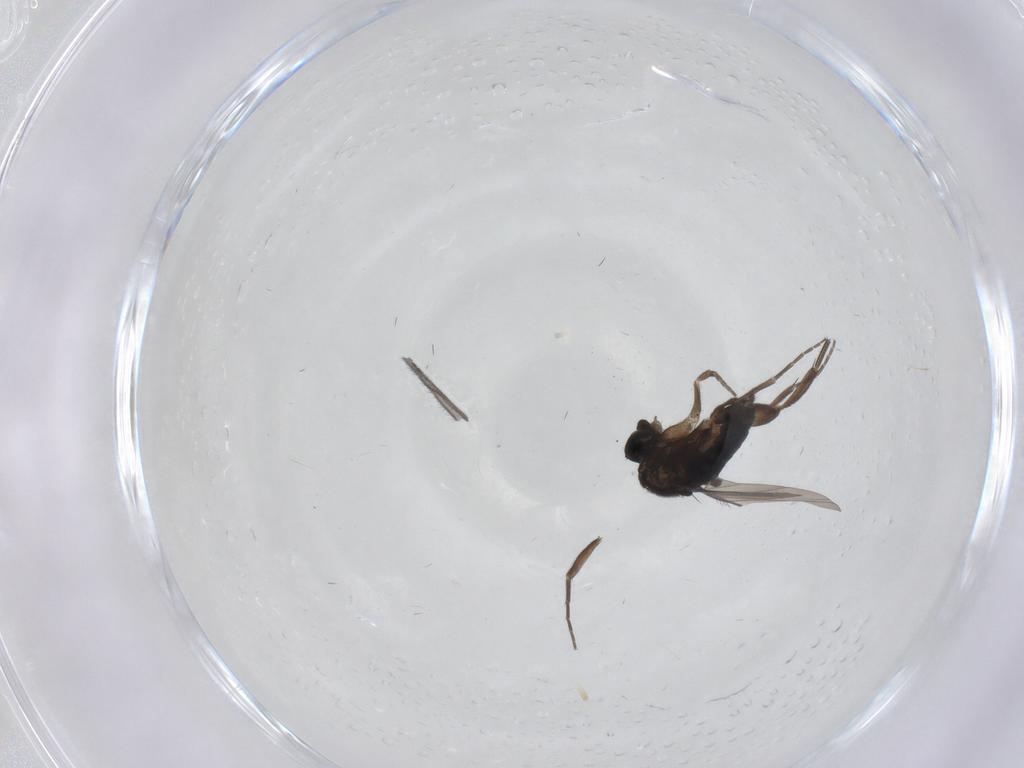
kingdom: Animalia
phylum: Arthropoda
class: Insecta
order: Diptera
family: Phoridae
